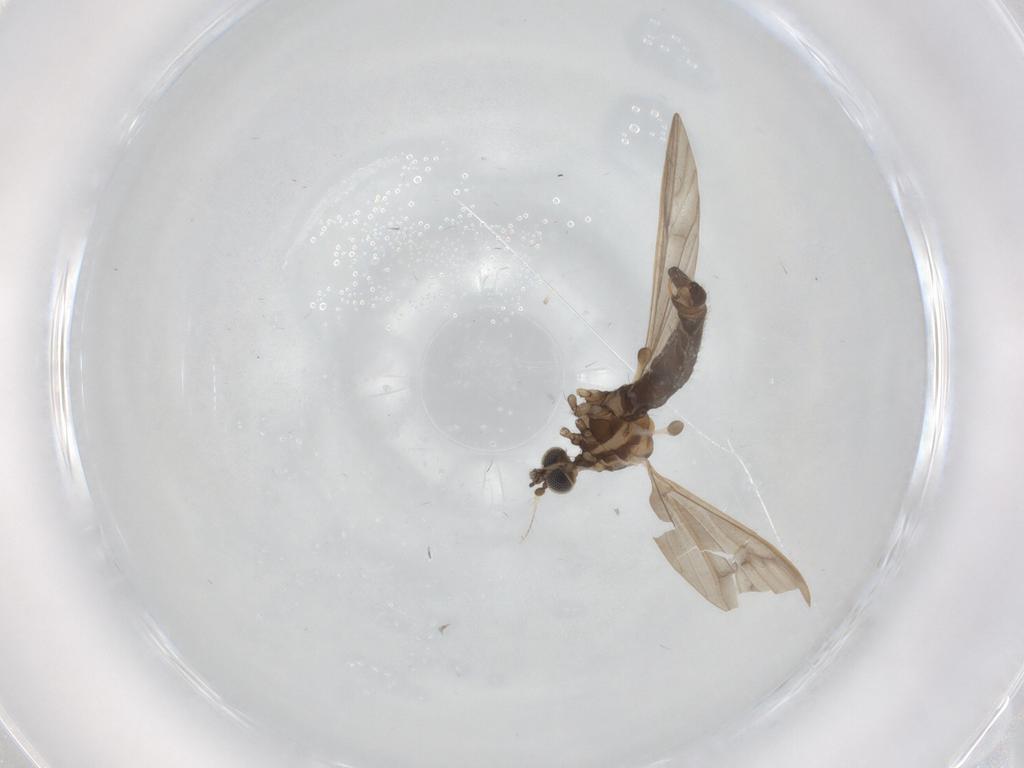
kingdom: Animalia
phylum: Arthropoda
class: Insecta
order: Diptera
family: Limoniidae
